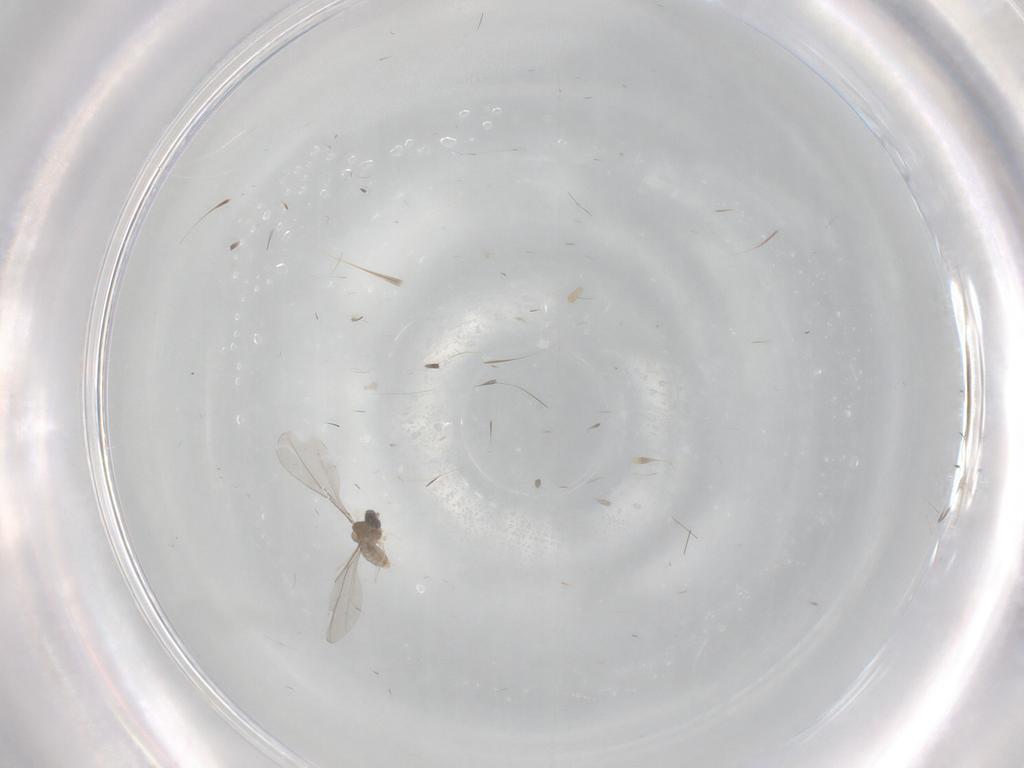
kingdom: Animalia
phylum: Arthropoda
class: Insecta
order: Diptera
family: Cecidomyiidae
